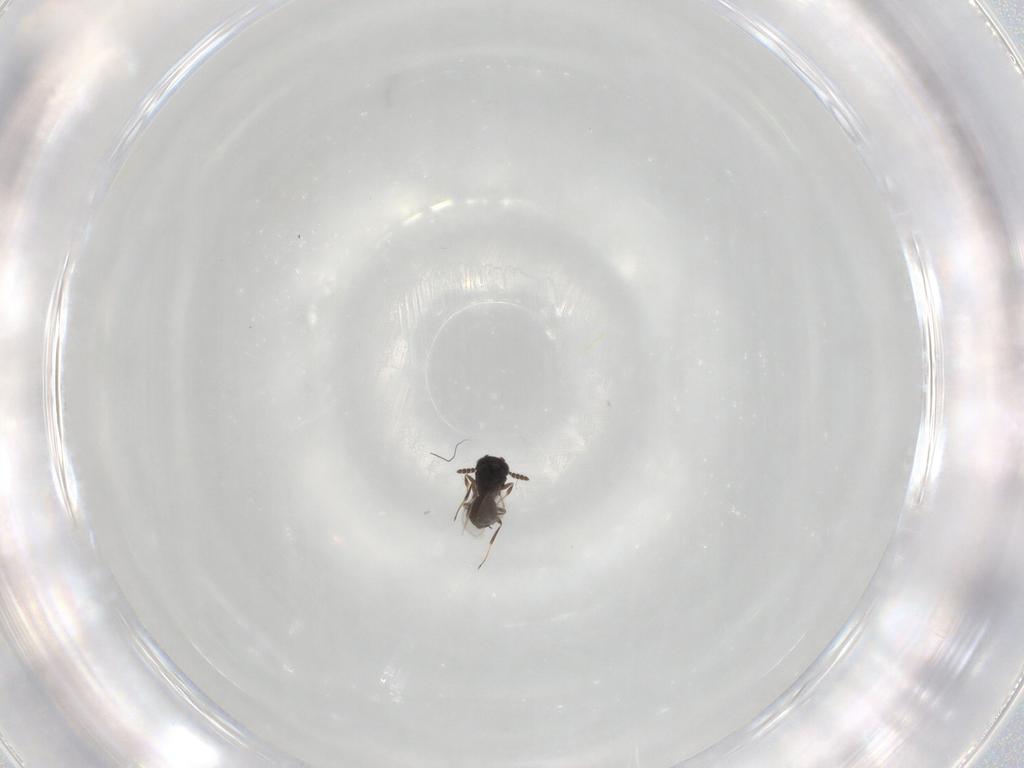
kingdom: Animalia
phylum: Arthropoda
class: Insecta
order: Hymenoptera
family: Scelionidae
